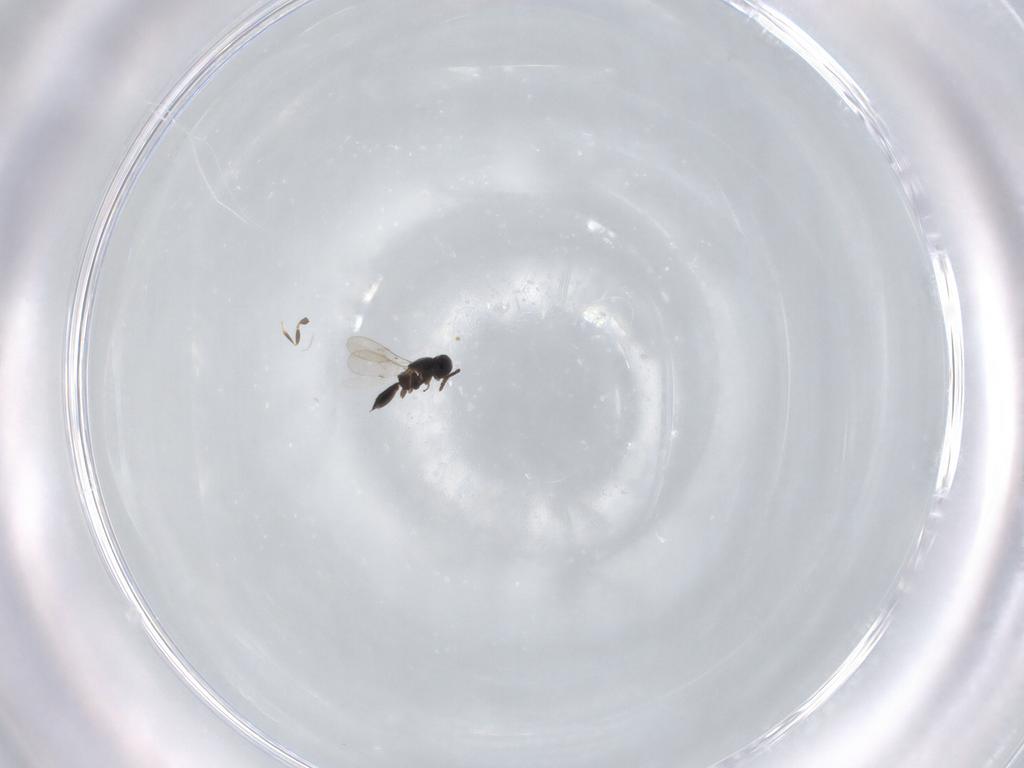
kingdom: Animalia
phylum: Arthropoda
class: Insecta
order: Hymenoptera
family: Scelionidae
